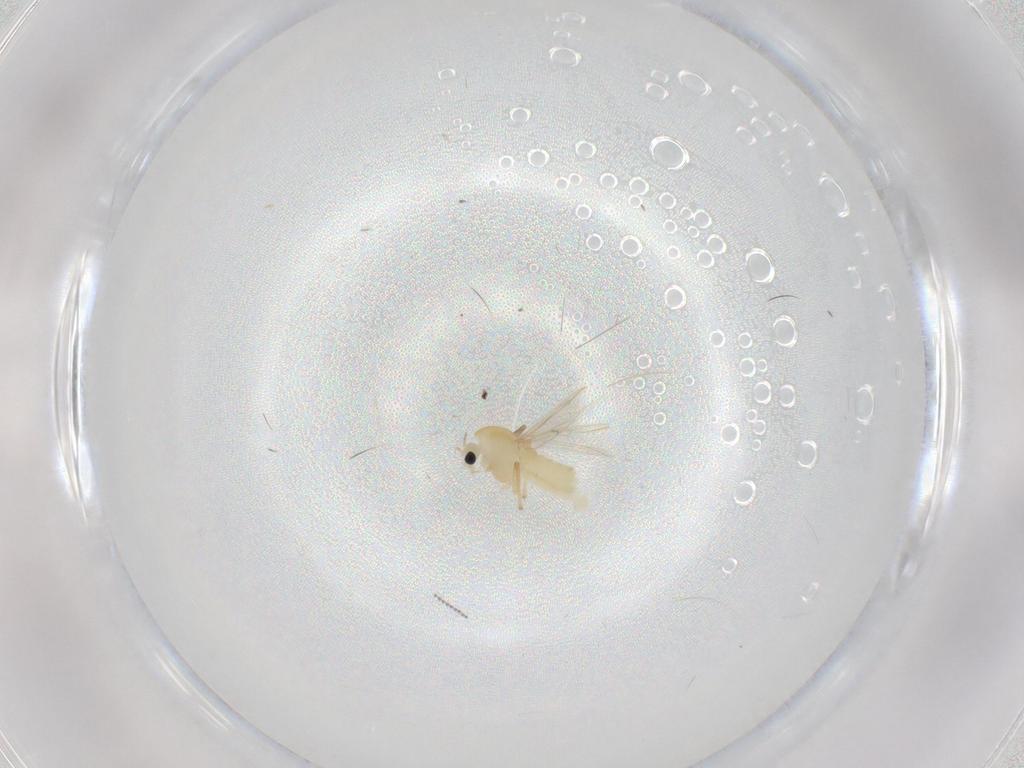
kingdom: Animalia
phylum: Arthropoda
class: Insecta
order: Diptera
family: Chironomidae
